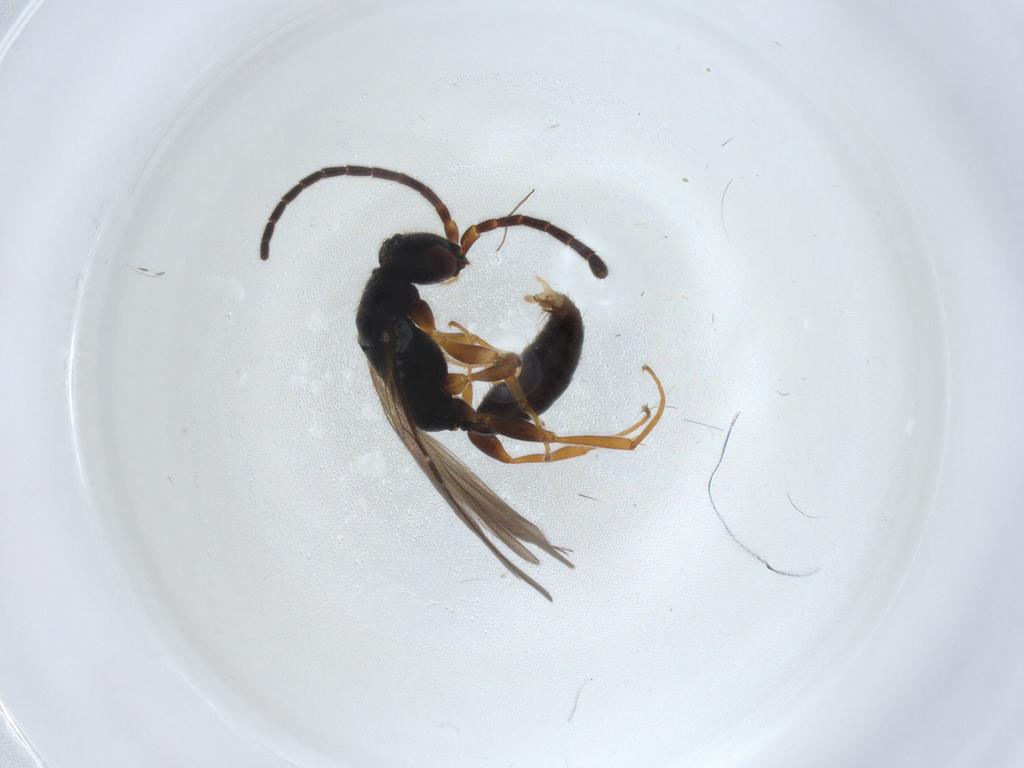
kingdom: Animalia
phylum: Arthropoda
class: Insecta
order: Hymenoptera
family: Bethylidae
